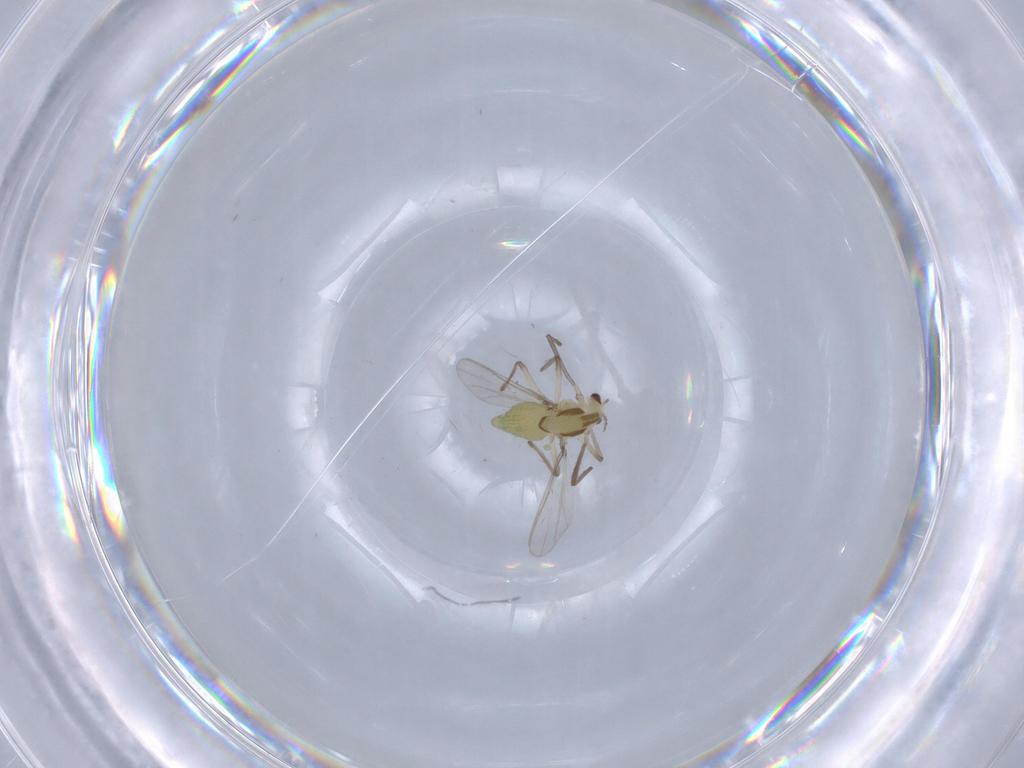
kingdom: Animalia
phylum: Arthropoda
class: Insecta
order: Diptera
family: Chironomidae
